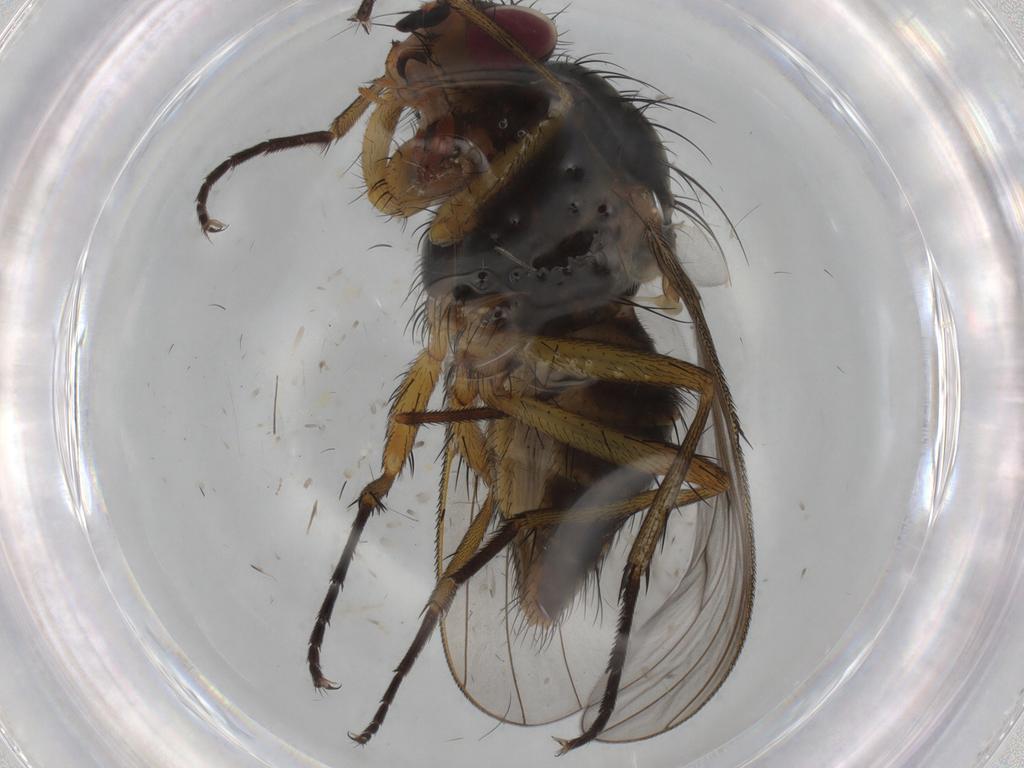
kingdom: Animalia
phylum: Arthropoda
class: Insecta
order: Diptera
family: Anthomyiidae
